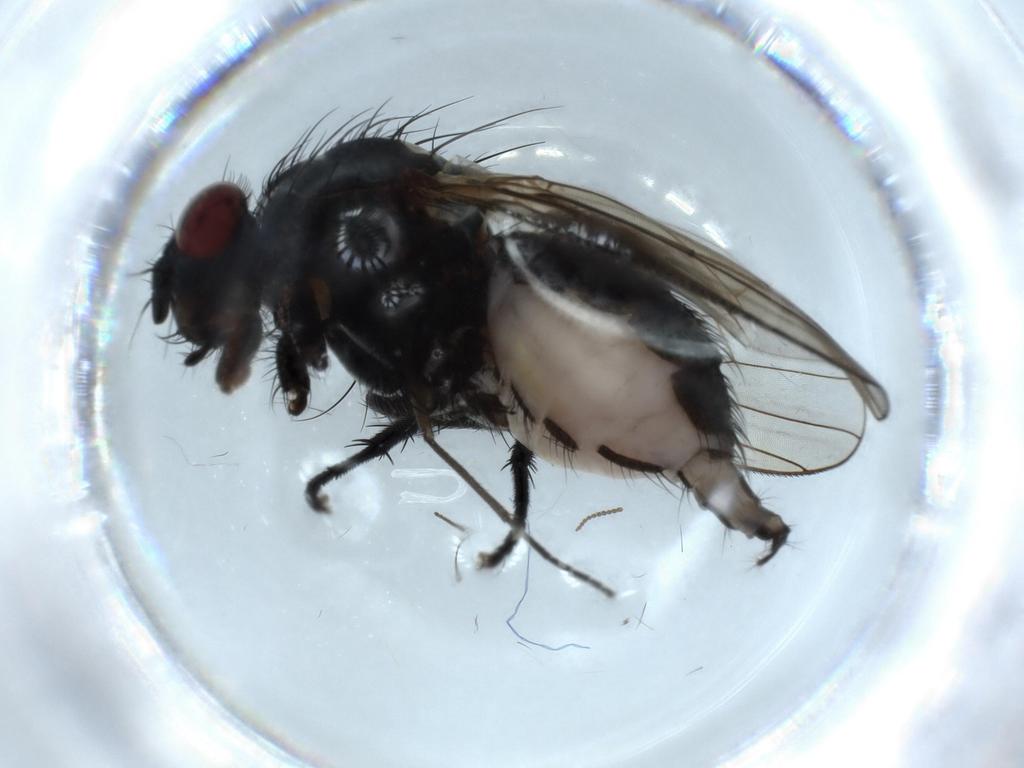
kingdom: Animalia
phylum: Arthropoda
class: Insecta
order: Diptera
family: Anthomyiidae
